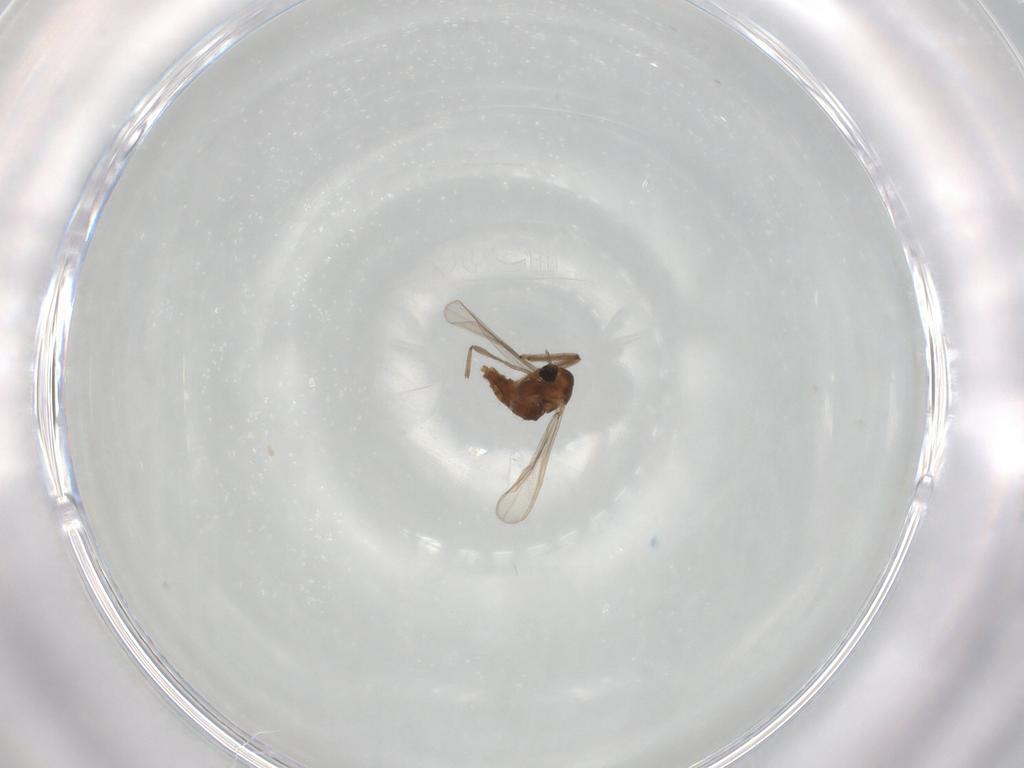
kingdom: Animalia
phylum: Arthropoda
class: Insecta
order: Diptera
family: Chironomidae
